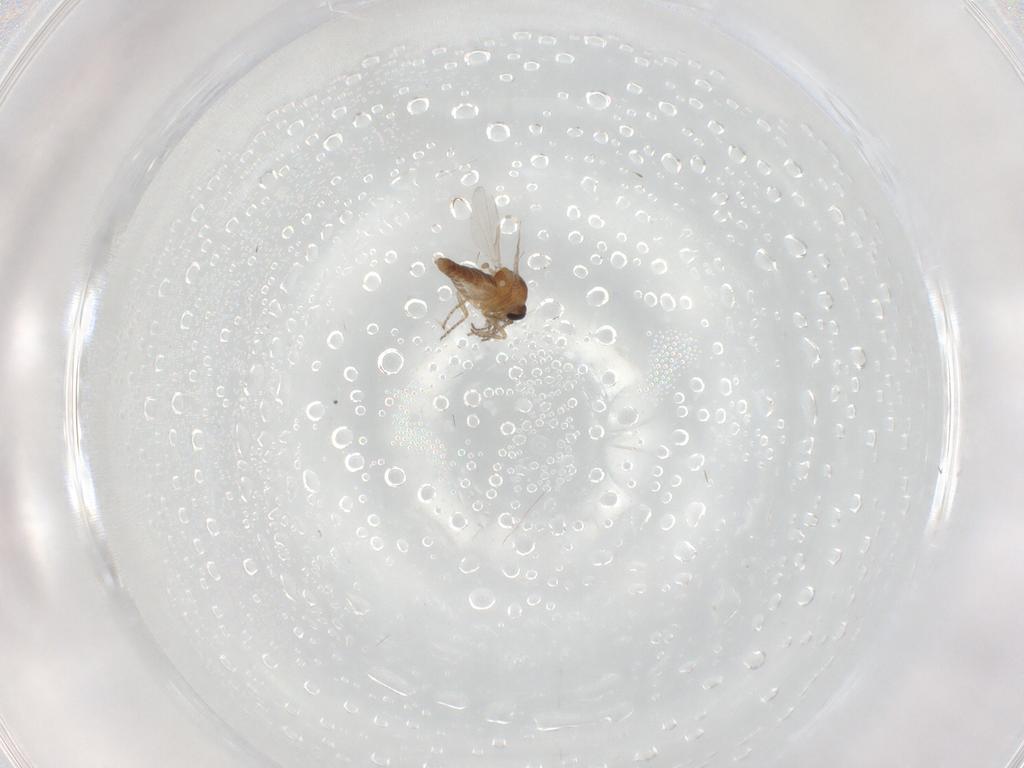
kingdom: Animalia
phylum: Arthropoda
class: Insecta
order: Diptera
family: Ceratopogonidae
